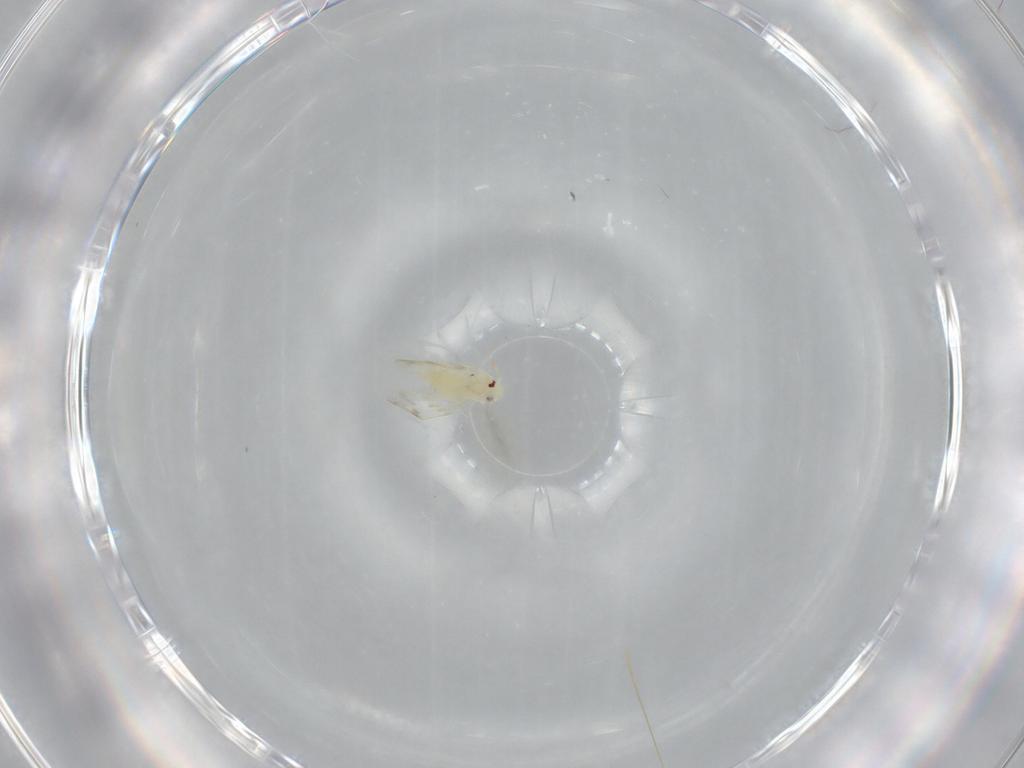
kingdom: Animalia
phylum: Arthropoda
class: Insecta
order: Hemiptera
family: Aleyrodidae
